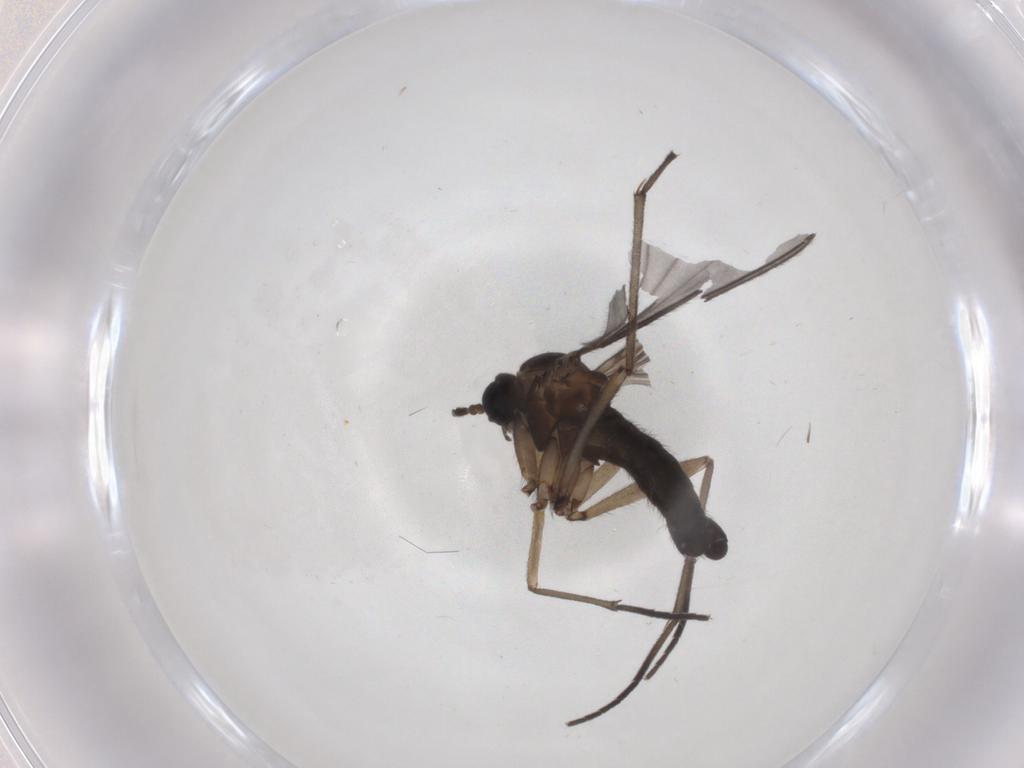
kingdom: Animalia
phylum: Arthropoda
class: Insecta
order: Diptera
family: Sciaridae
